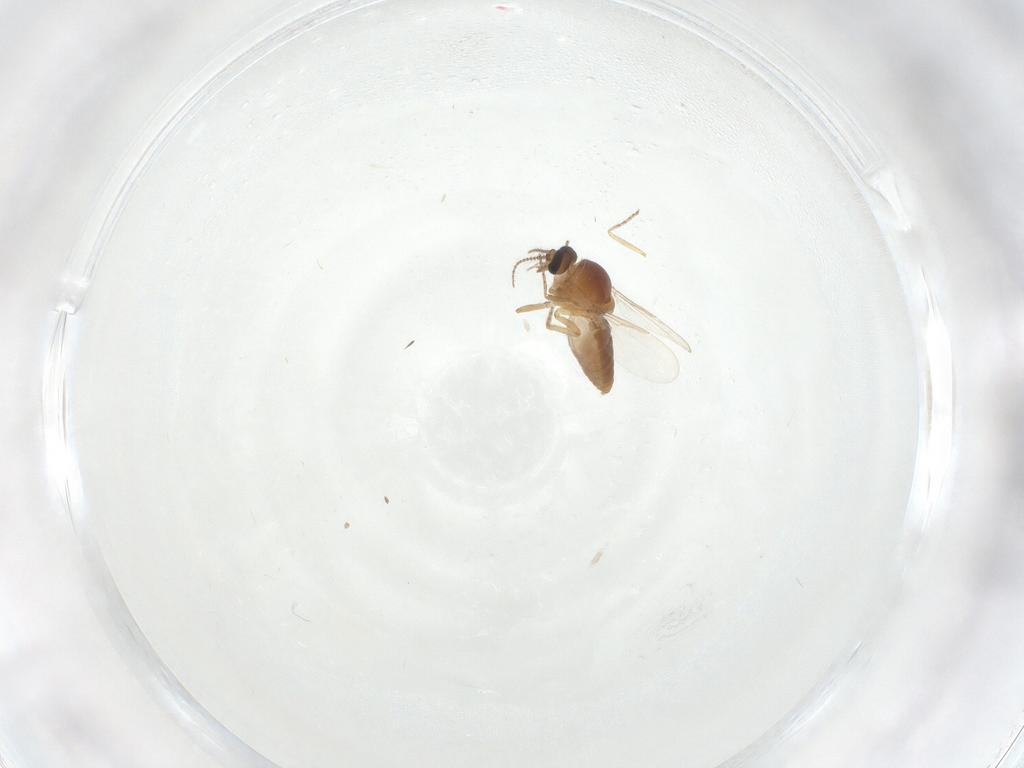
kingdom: Animalia
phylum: Arthropoda
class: Insecta
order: Diptera
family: Ceratopogonidae
